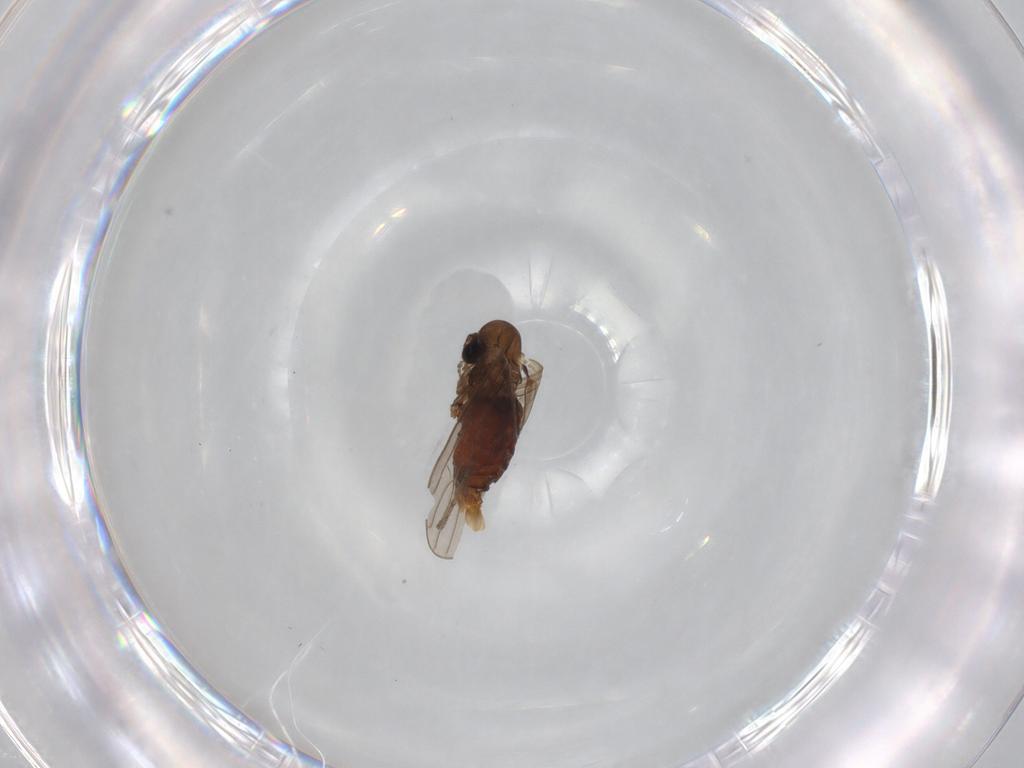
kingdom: Animalia
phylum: Arthropoda
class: Insecta
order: Diptera
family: Psychodidae
